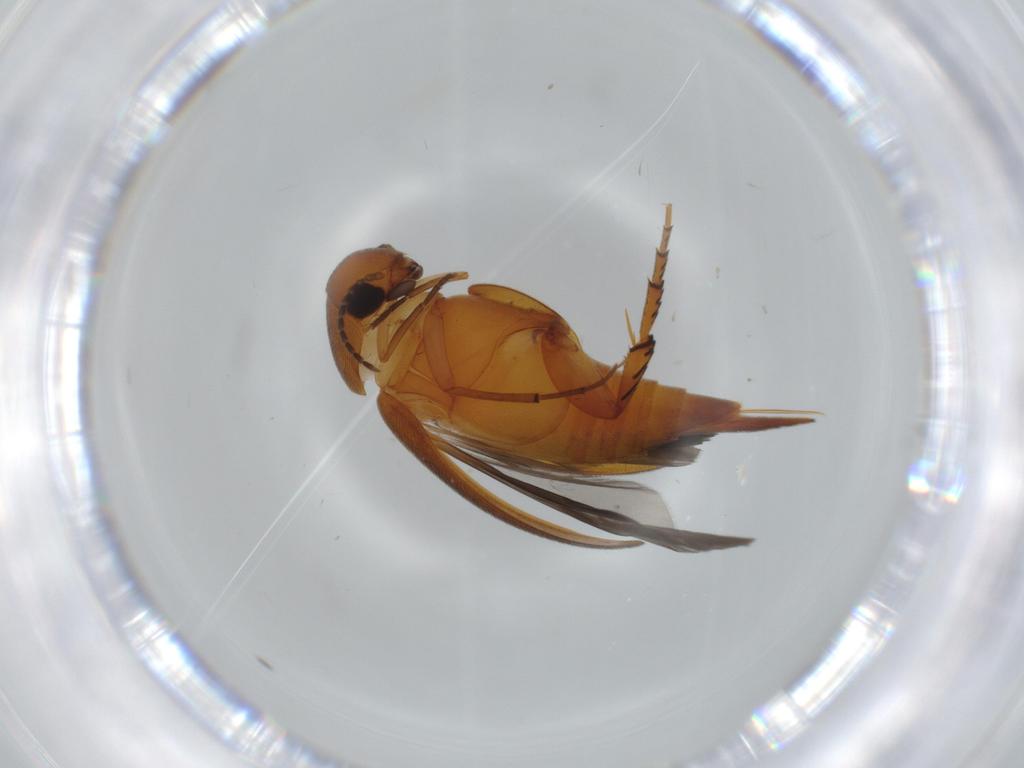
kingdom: Animalia
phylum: Arthropoda
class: Insecta
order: Coleoptera
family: Mordellidae
